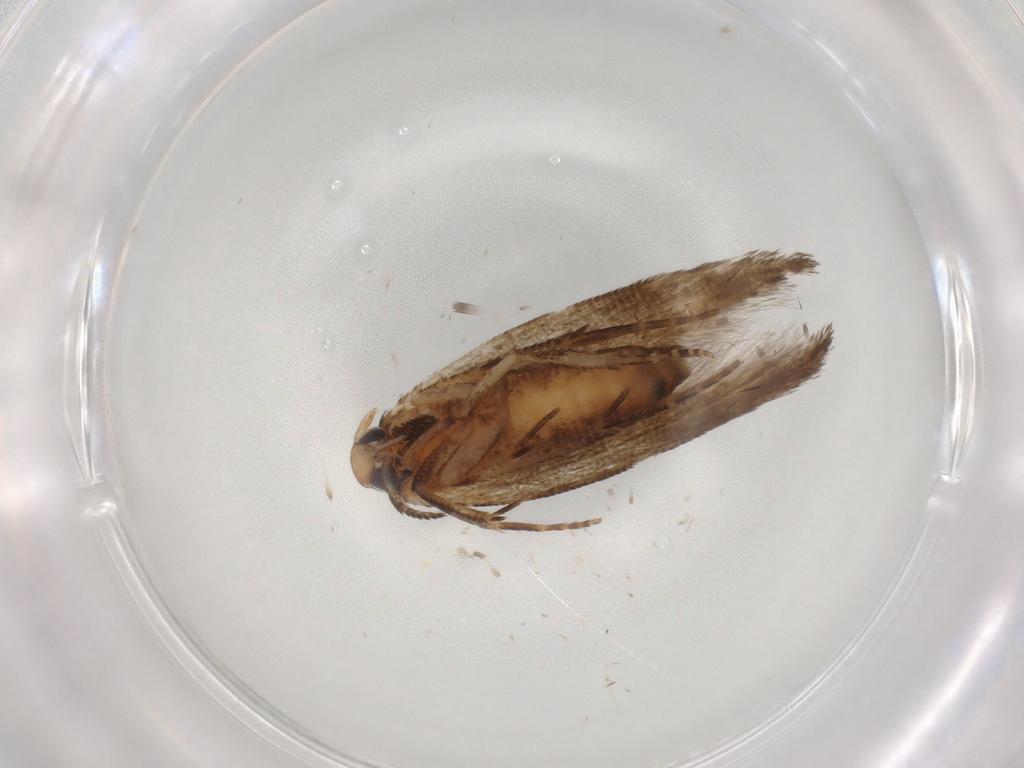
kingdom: Animalia
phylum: Arthropoda
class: Insecta
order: Lepidoptera
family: Cosmopterigidae
